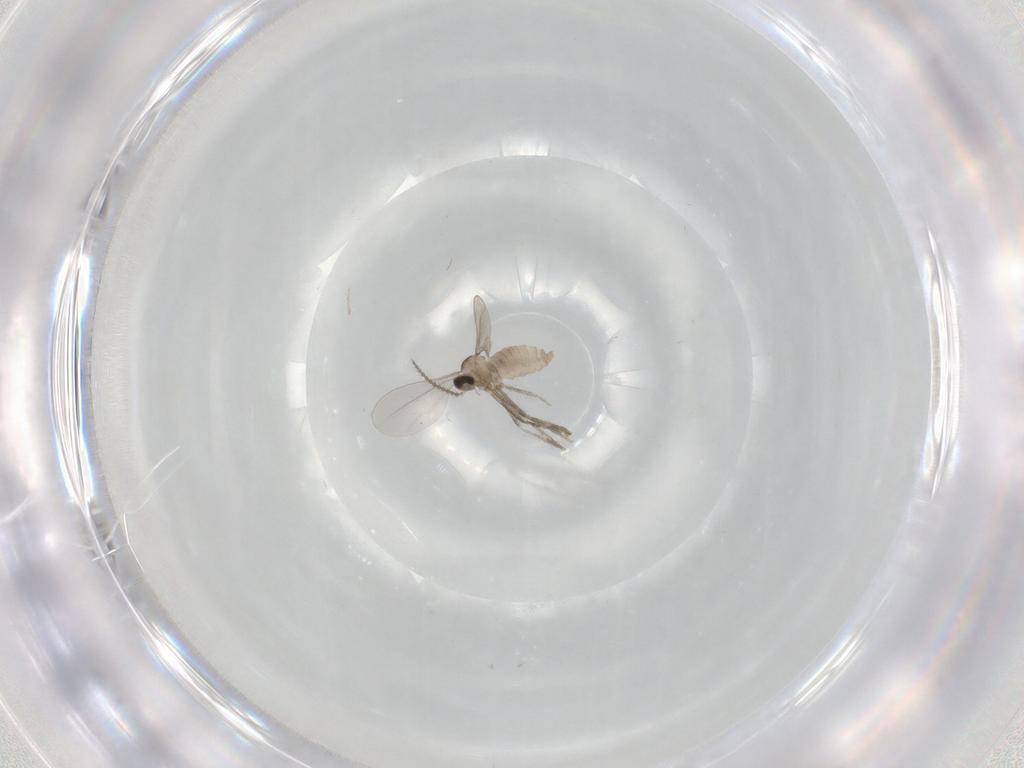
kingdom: Animalia
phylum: Arthropoda
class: Insecta
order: Diptera
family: Cecidomyiidae
